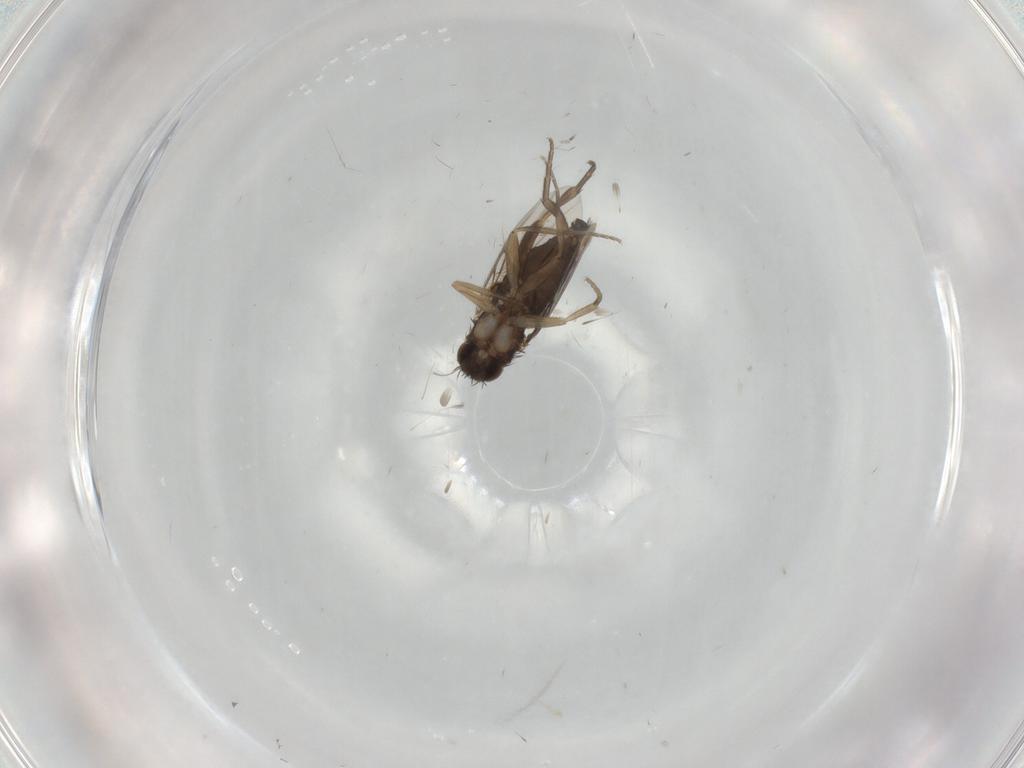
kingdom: Animalia
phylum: Arthropoda
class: Insecta
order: Diptera
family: Phoridae
